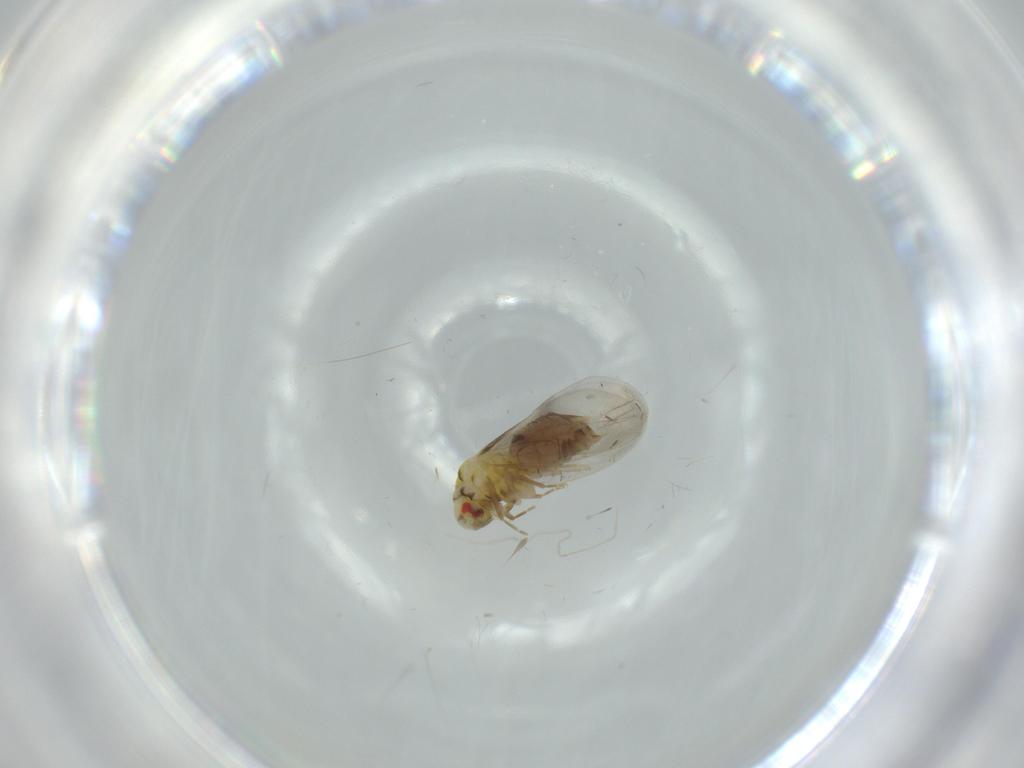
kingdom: Animalia
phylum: Arthropoda
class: Insecta
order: Hemiptera
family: Aleyrodidae
